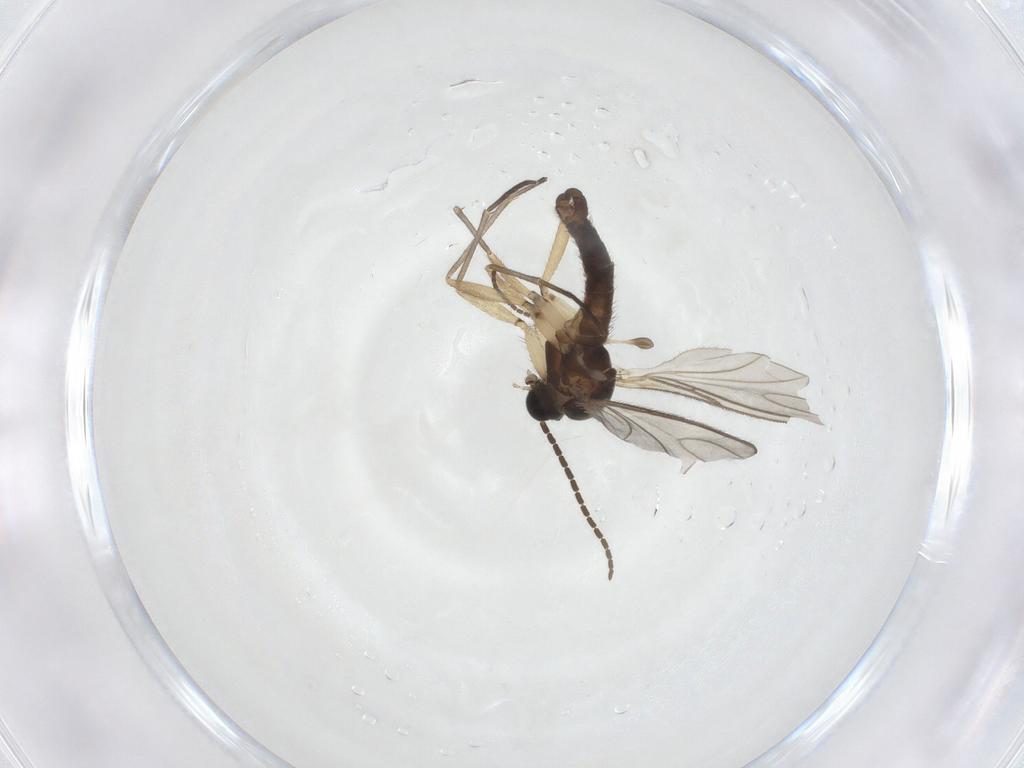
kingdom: Animalia
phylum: Arthropoda
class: Insecta
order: Diptera
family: Sciaridae
